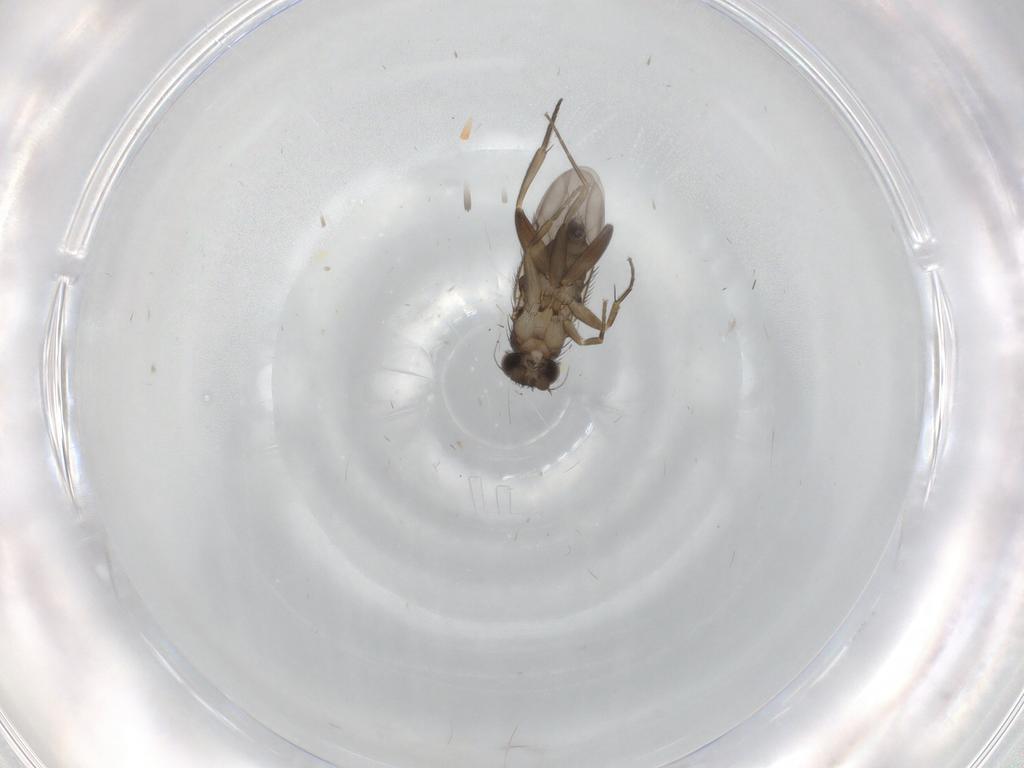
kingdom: Animalia
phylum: Arthropoda
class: Insecta
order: Diptera
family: Phoridae
